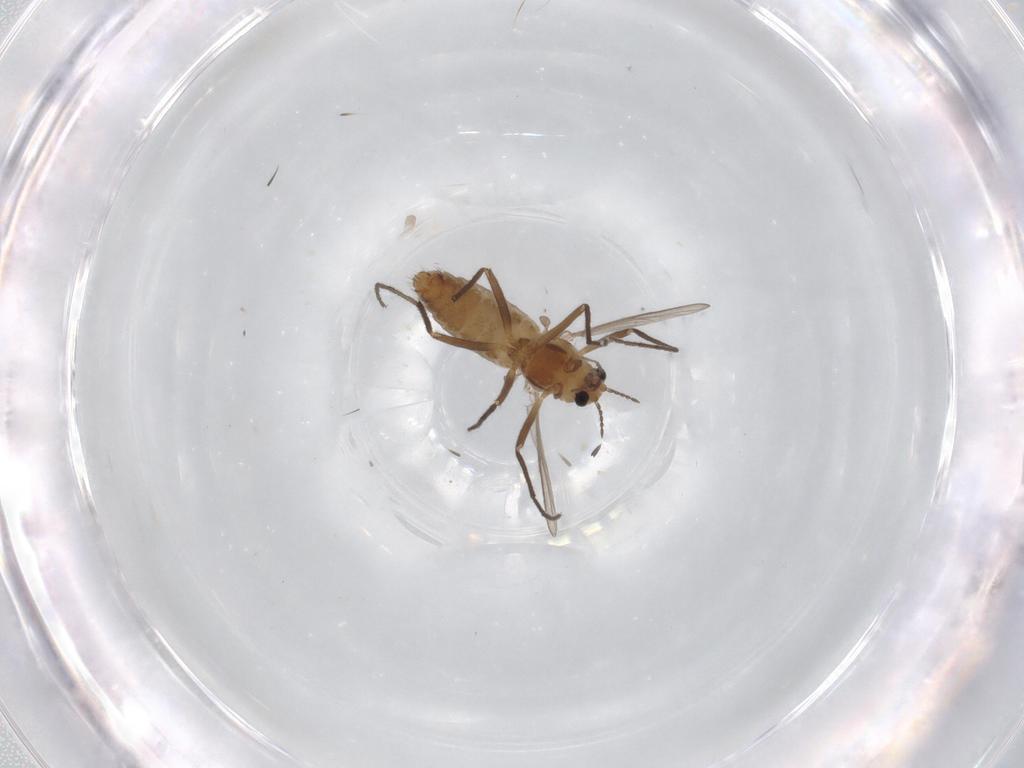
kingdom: Animalia
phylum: Arthropoda
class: Insecta
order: Diptera
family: Chironomidae
